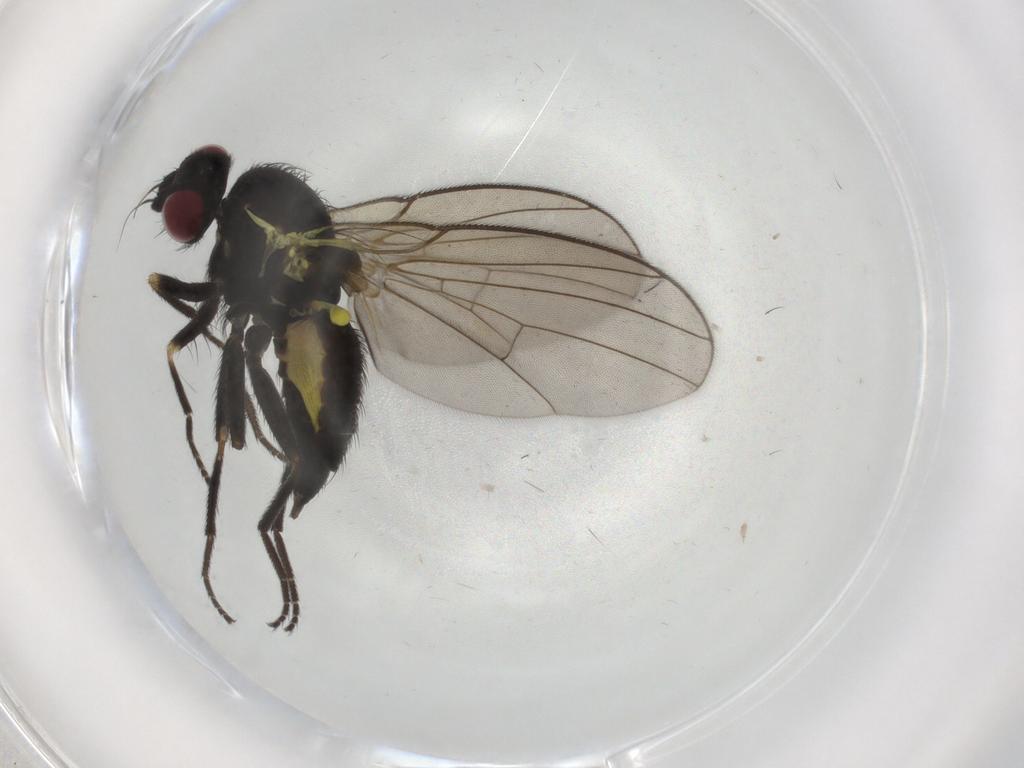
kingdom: Animalia
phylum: Arthropoda
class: Insecta
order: Diptera
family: Agromyzidae
